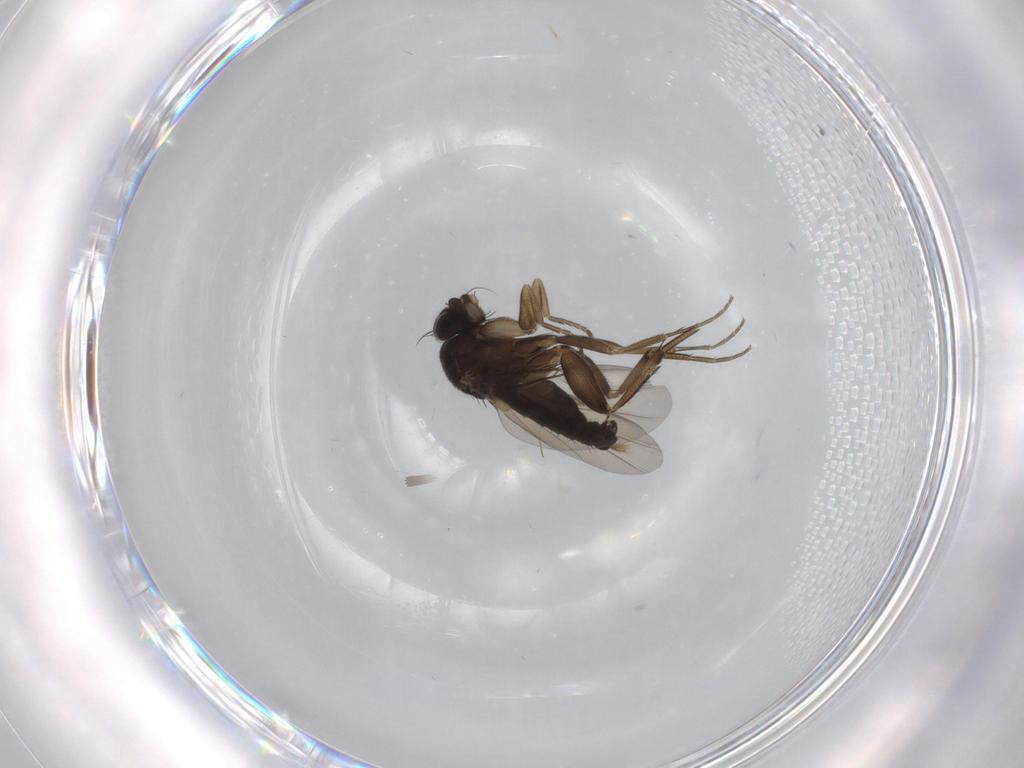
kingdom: Animalia
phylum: Arthropoda
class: Insecta
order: Diptera
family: Phoridae
